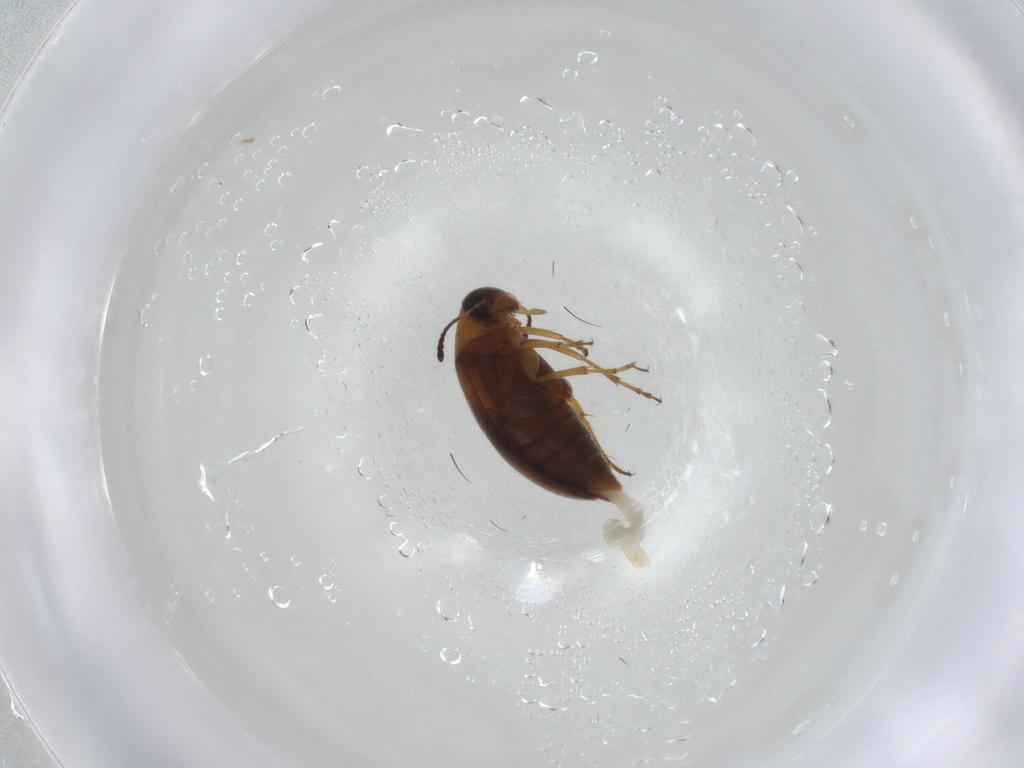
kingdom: Animalia
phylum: Arthropoda
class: Insecta
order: Coleoptera
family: Scraptiidae
